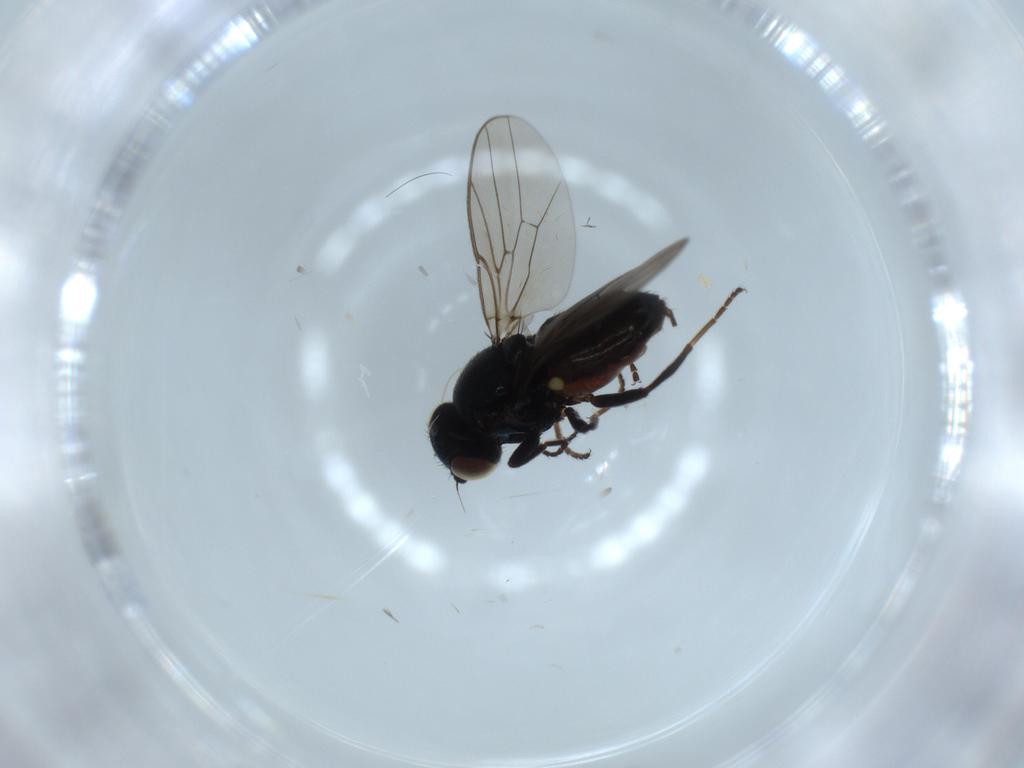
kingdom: Animalia
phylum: Arthropoda
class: Insecta
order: Diptera
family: Chloropidae
